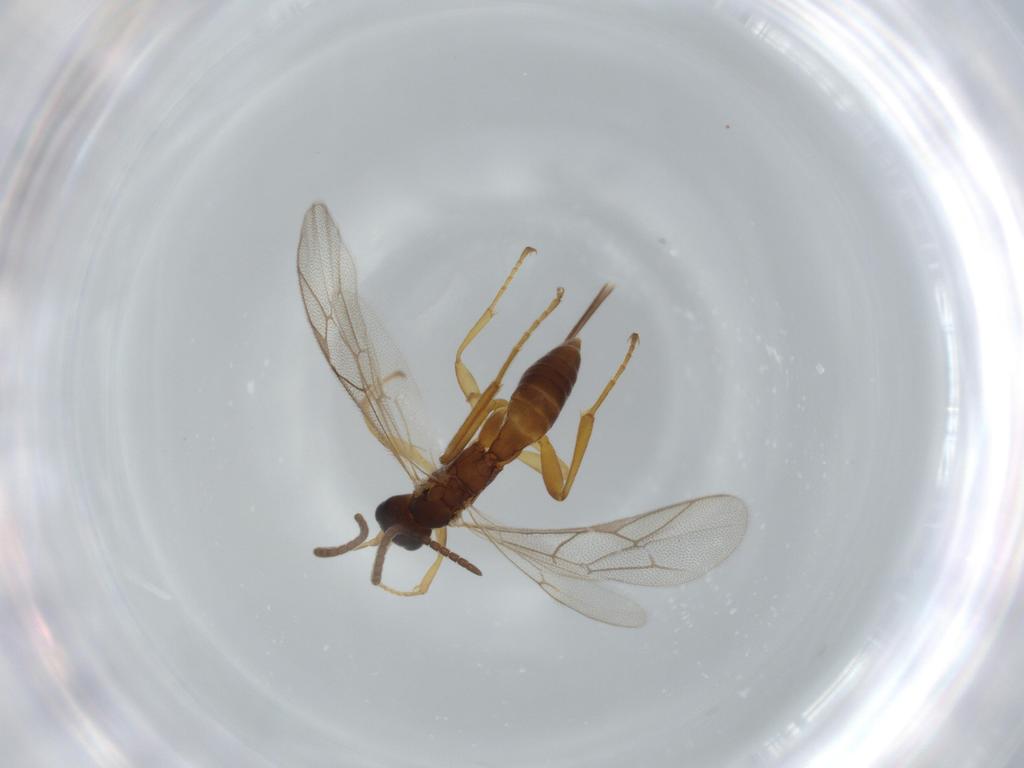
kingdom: Animalia
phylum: Arthropoda
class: Insecta
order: Hymenoptera
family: Ichneumonidae
